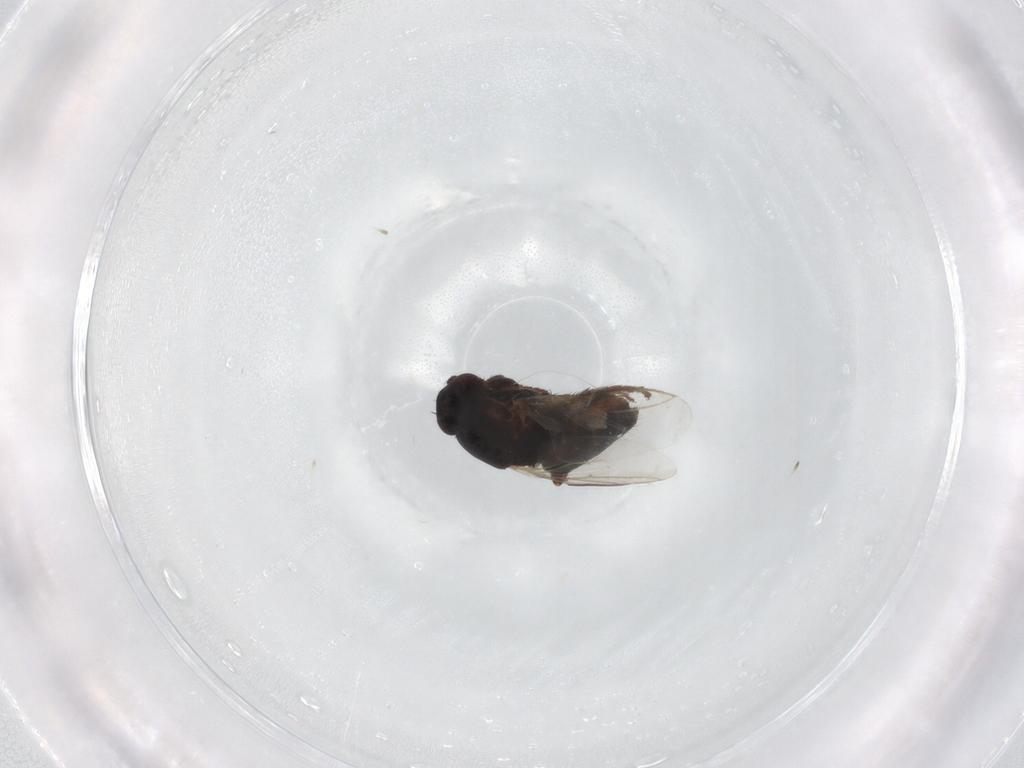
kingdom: Animalia
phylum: Arthropoda
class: Insecta
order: Diptera
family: Sphaeroceridae
